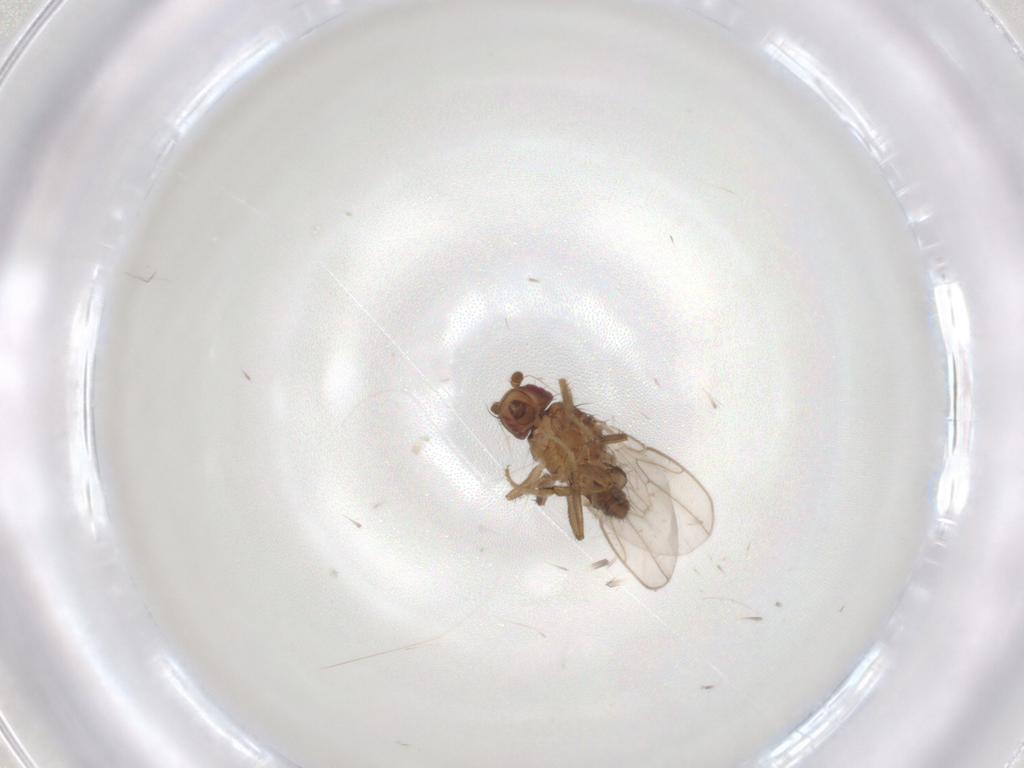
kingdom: Animalia
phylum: Arthropoda
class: Insecta
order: Diptera
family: Sphaeroceridae
